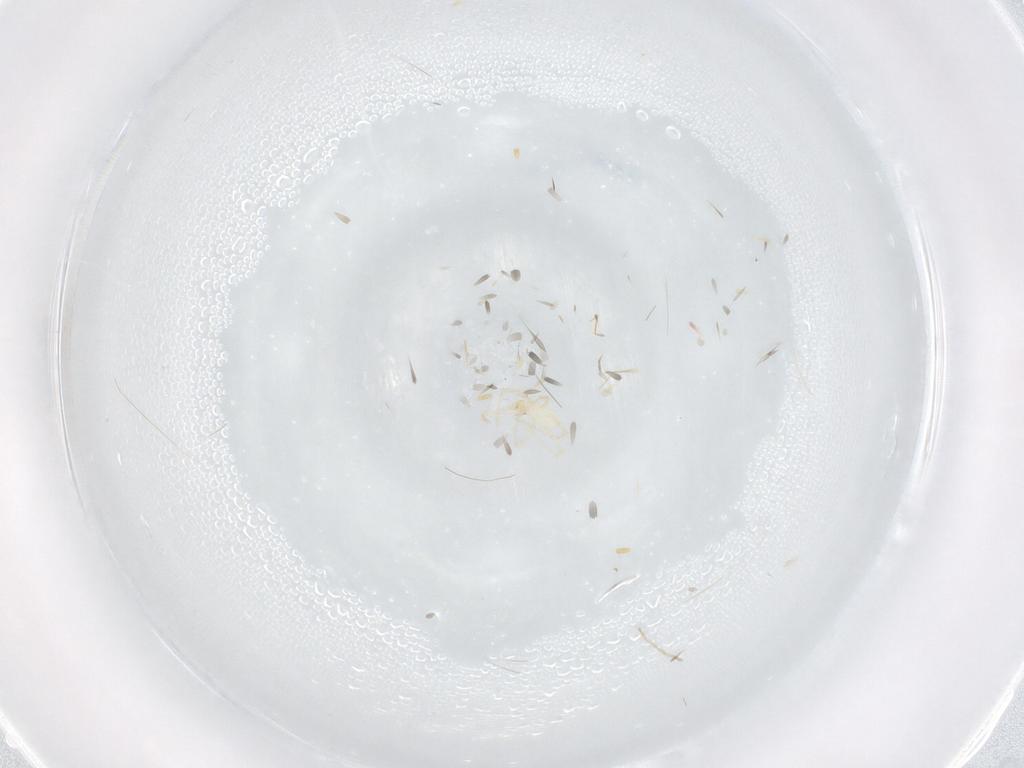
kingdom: Animalia
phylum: Arthropoda
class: Arachnida
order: Trombidiformes
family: Erythraeidae
